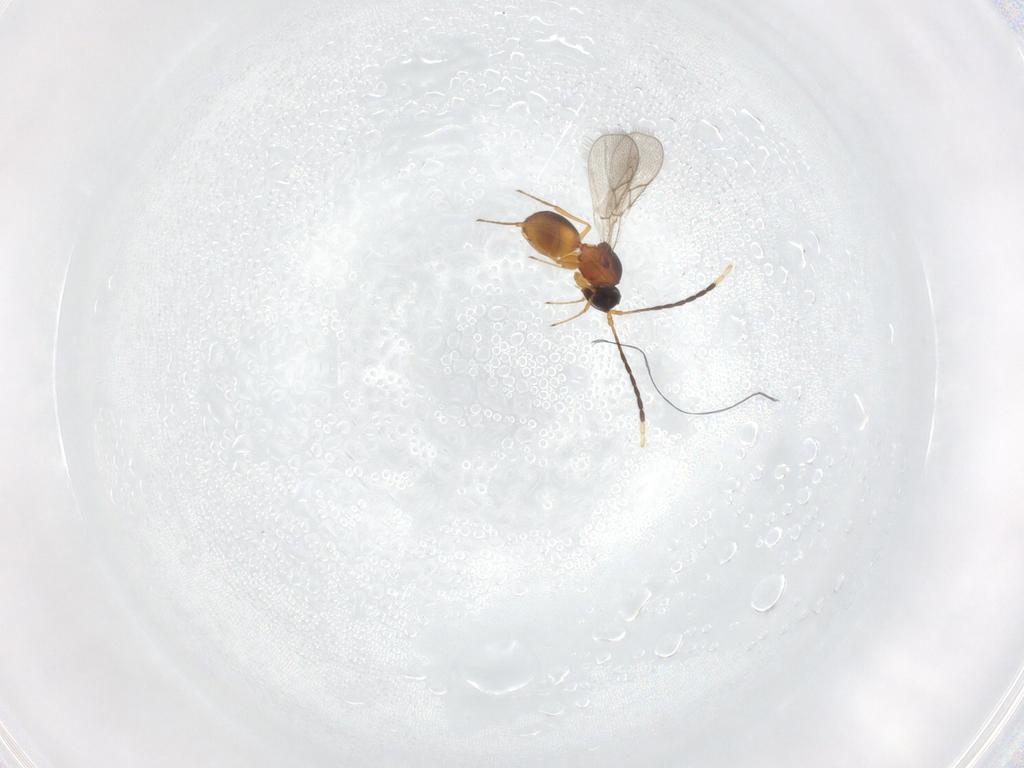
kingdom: Animalia
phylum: Arthropoda
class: Insecta
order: Hymenoptera
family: Figitidae
